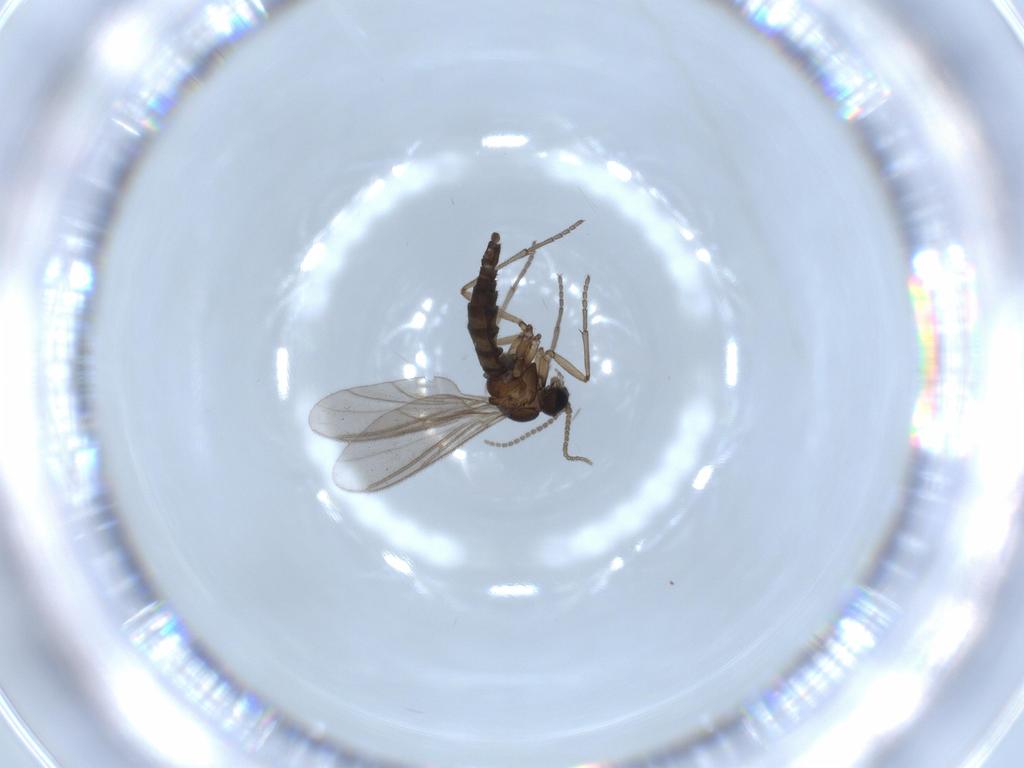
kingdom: Animalia
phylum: Arthropoda
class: Insecta
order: Diptera
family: Sciaridae
